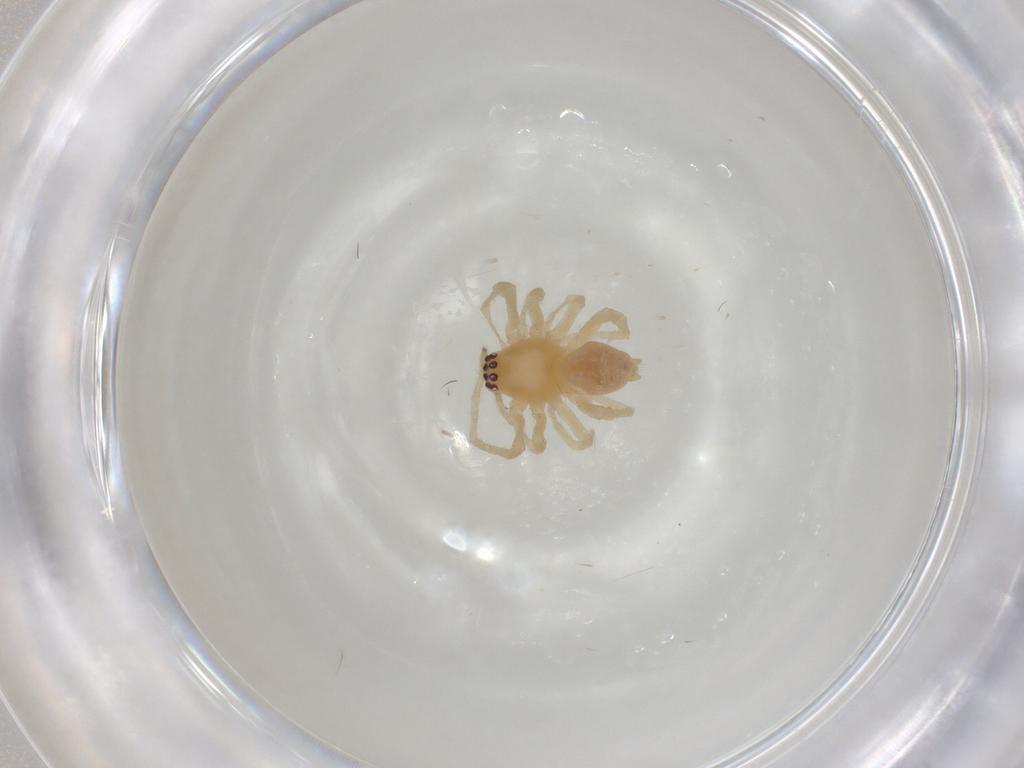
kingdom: Animalia
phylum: Arthropoda
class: Arachnida
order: Araneae
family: Cheiracanthiidae
